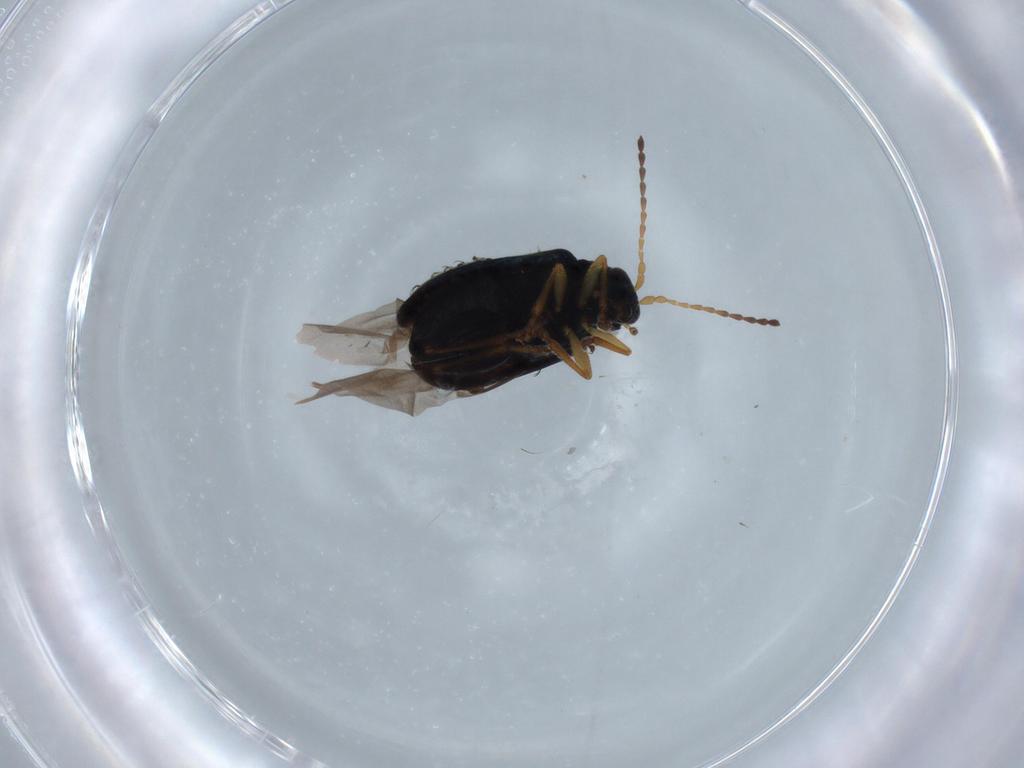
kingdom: Animalia
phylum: Arthropoda
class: Insecta
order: Coleoptera
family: Chrysomelidae
